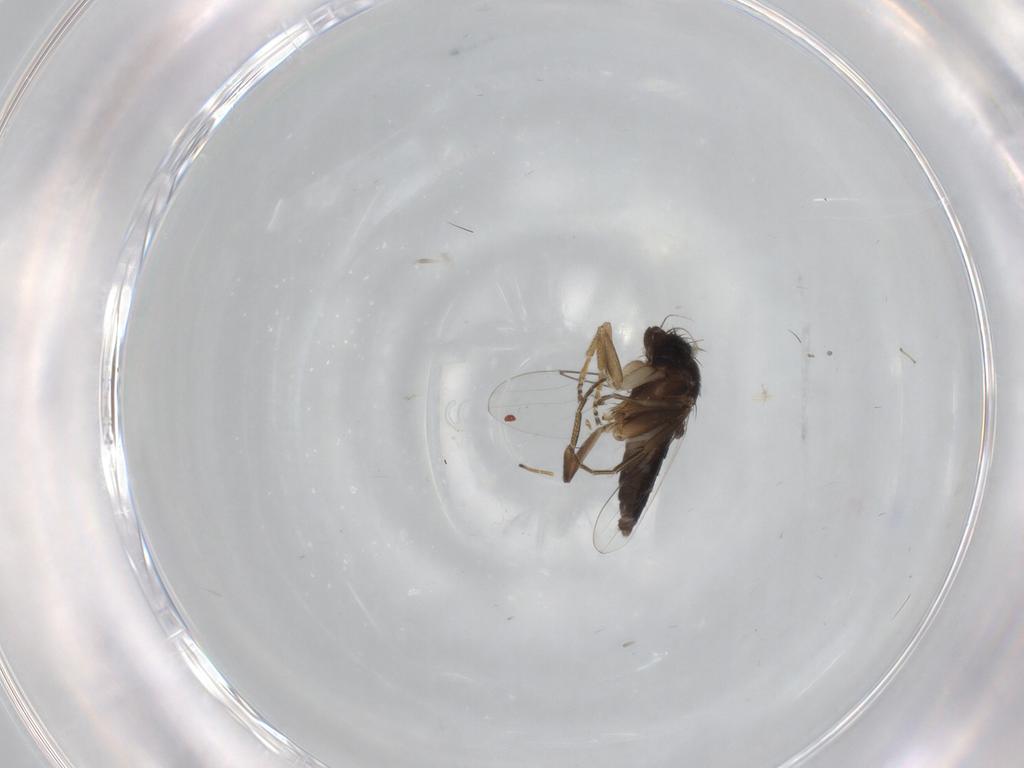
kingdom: Animalia
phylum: Arthropoda
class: Insecta
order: Diptera
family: Phoridae
